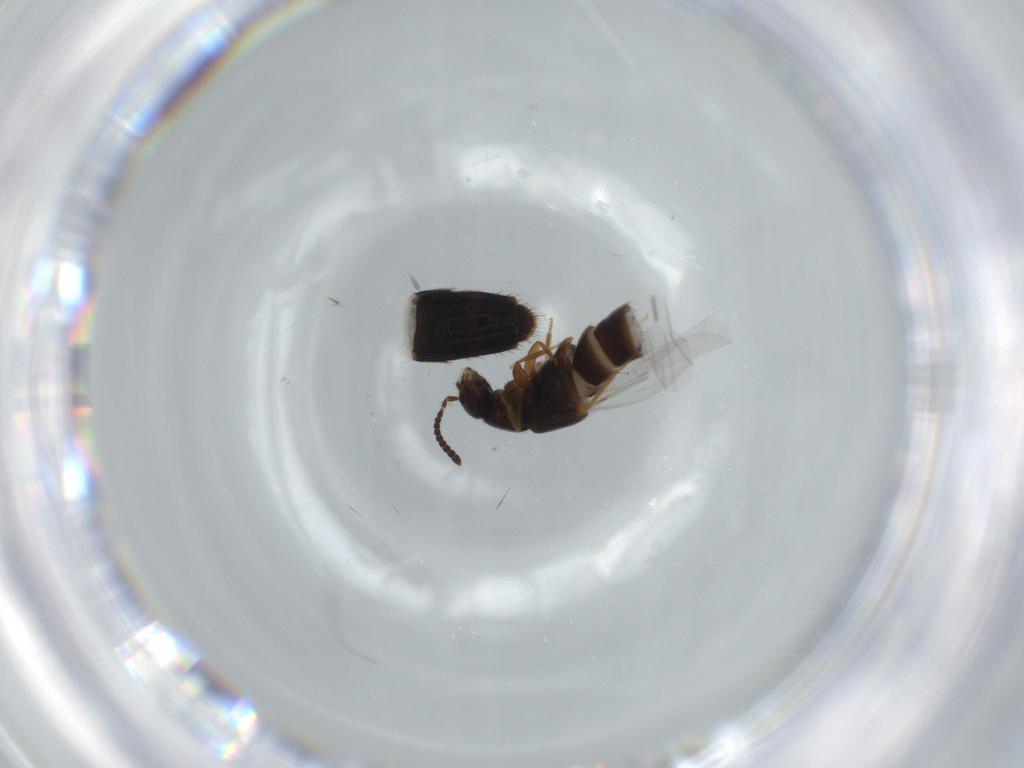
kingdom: Animalia
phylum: Arthropoda
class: Insecta
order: Coleoptera
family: Staphylinidae
